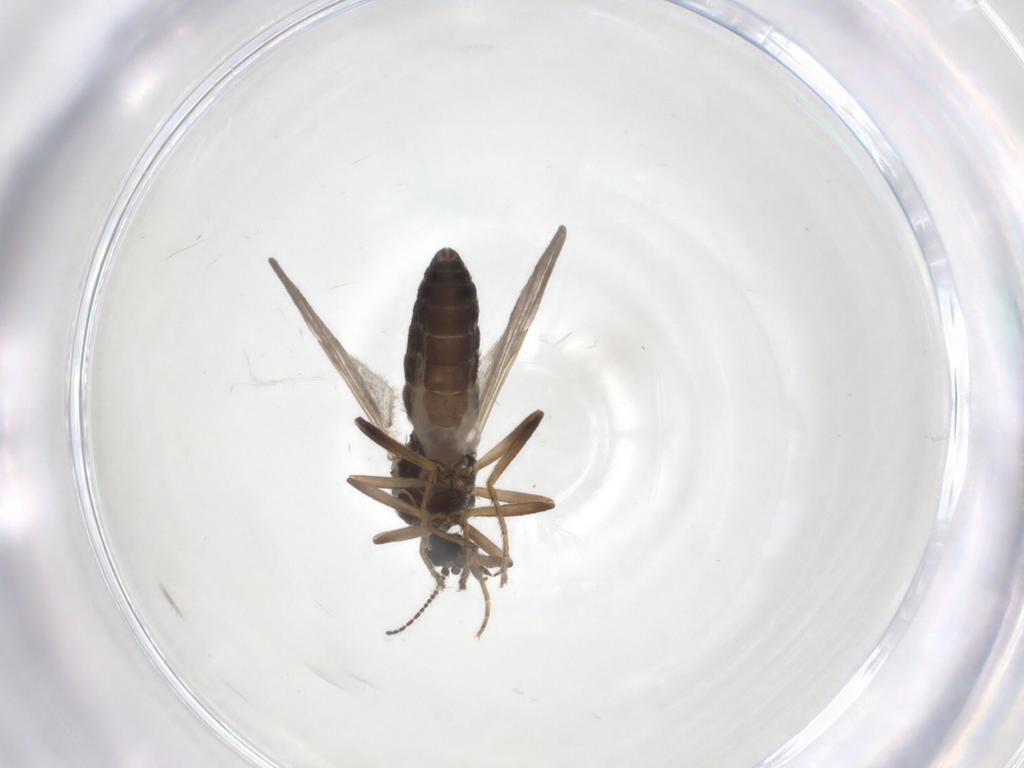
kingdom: Animalia
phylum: Arthropoda
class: Insecta
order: Diptera
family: Ceratopogonidae
